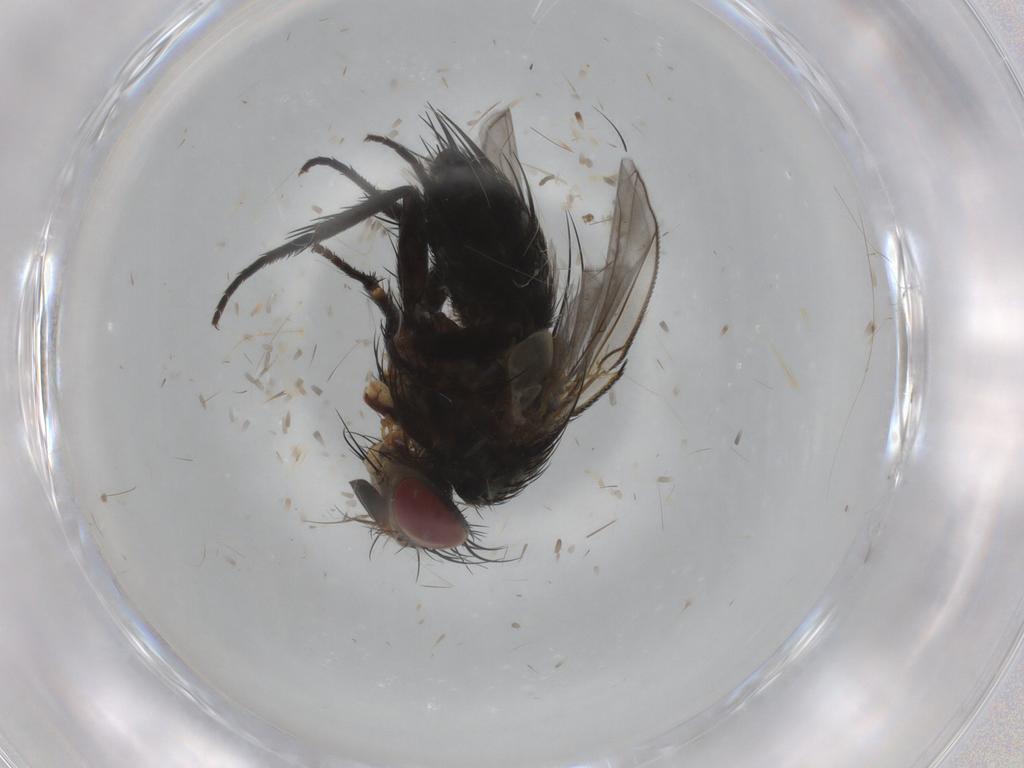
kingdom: Animalia
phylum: Arthropoda
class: Insecta
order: Diptera
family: Tachinidae
